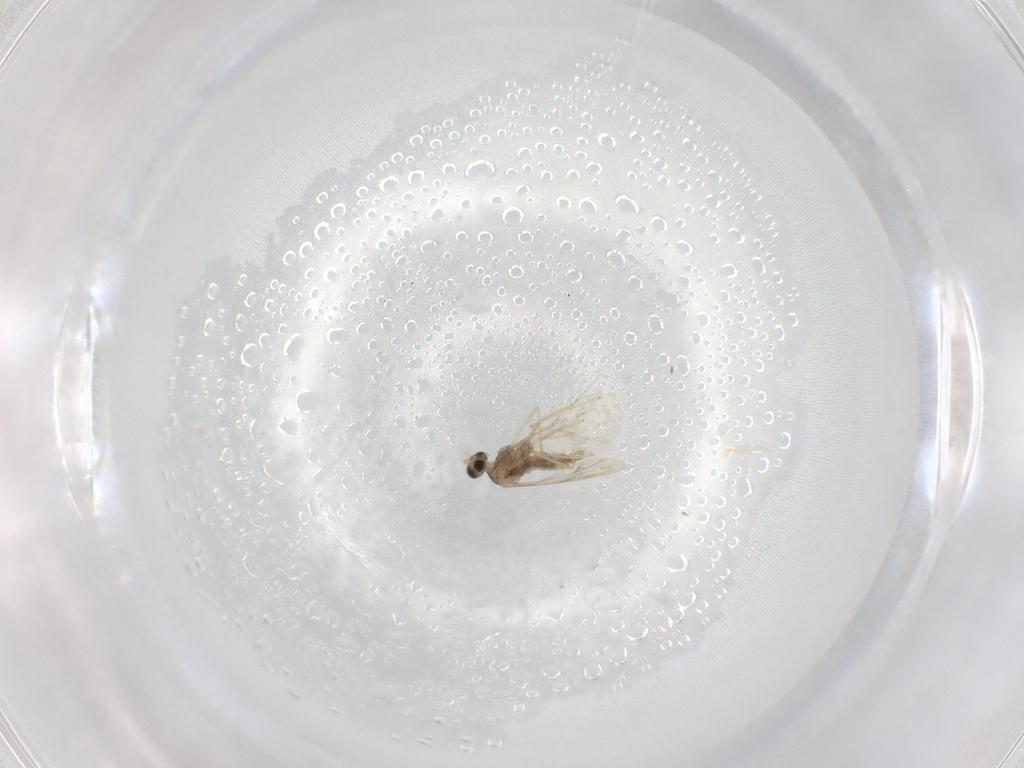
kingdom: Animalia
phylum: Arthropoda
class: Insecta
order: Diptera
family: Cecidomyiidae
